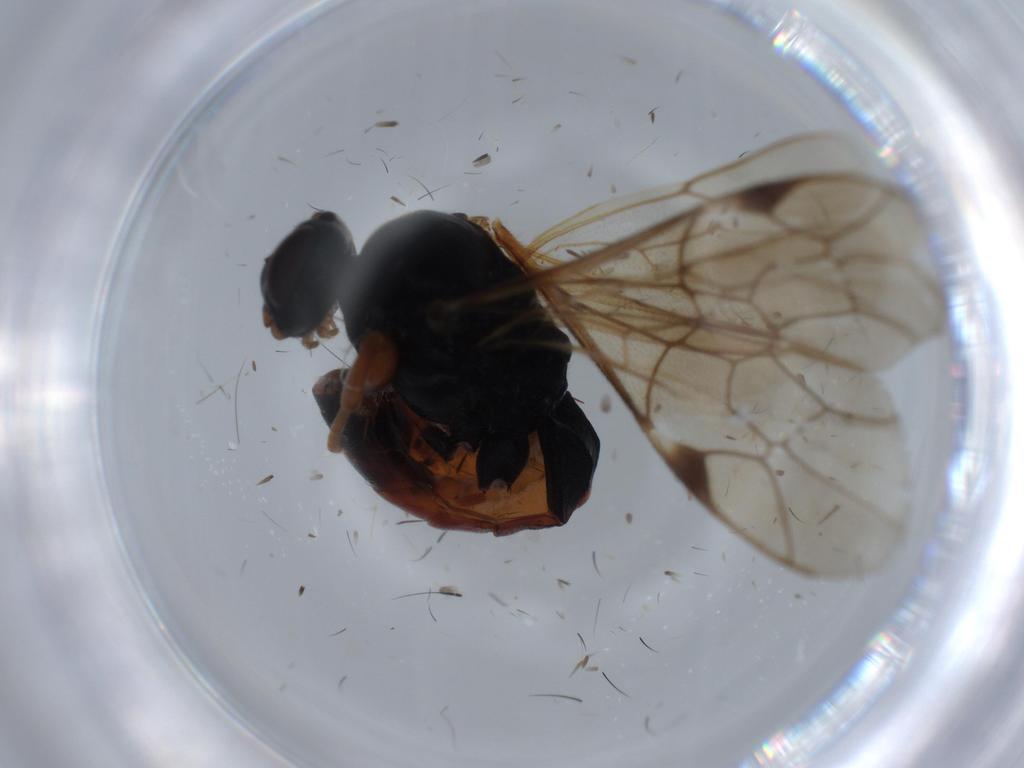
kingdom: Animalia
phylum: Arthropoda
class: Insecta
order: Hymenoptera
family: Ichneumonidae
